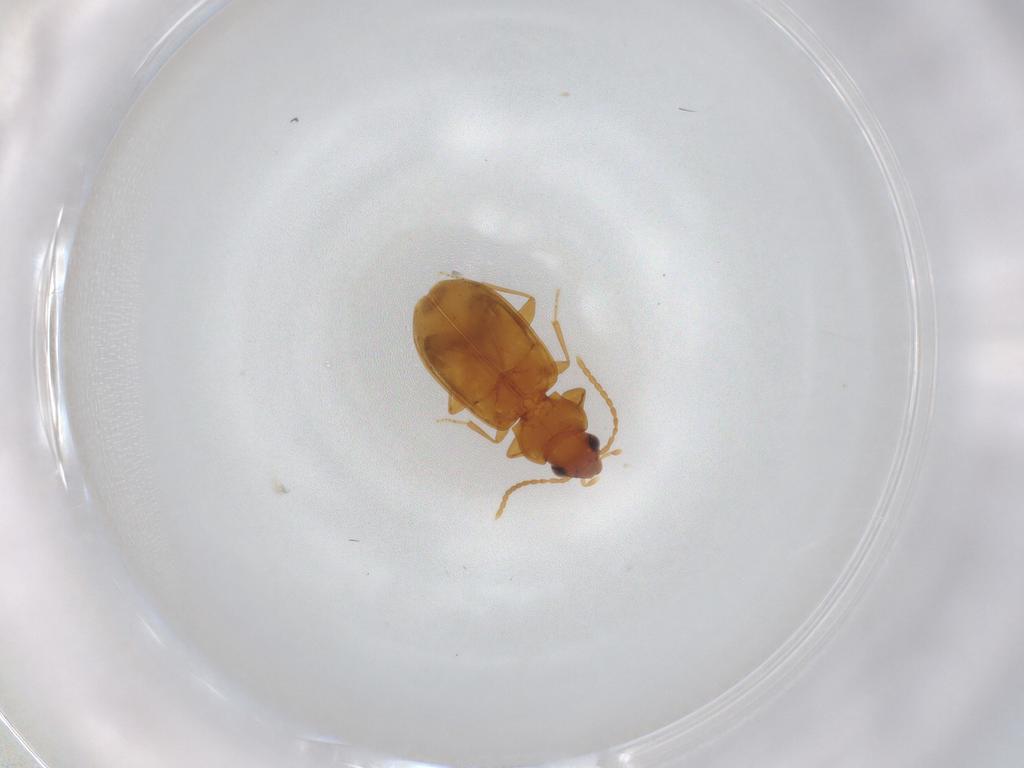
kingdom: Animalia
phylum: Arthropoda
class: Insecta
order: Coleoptera
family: Carabidae
